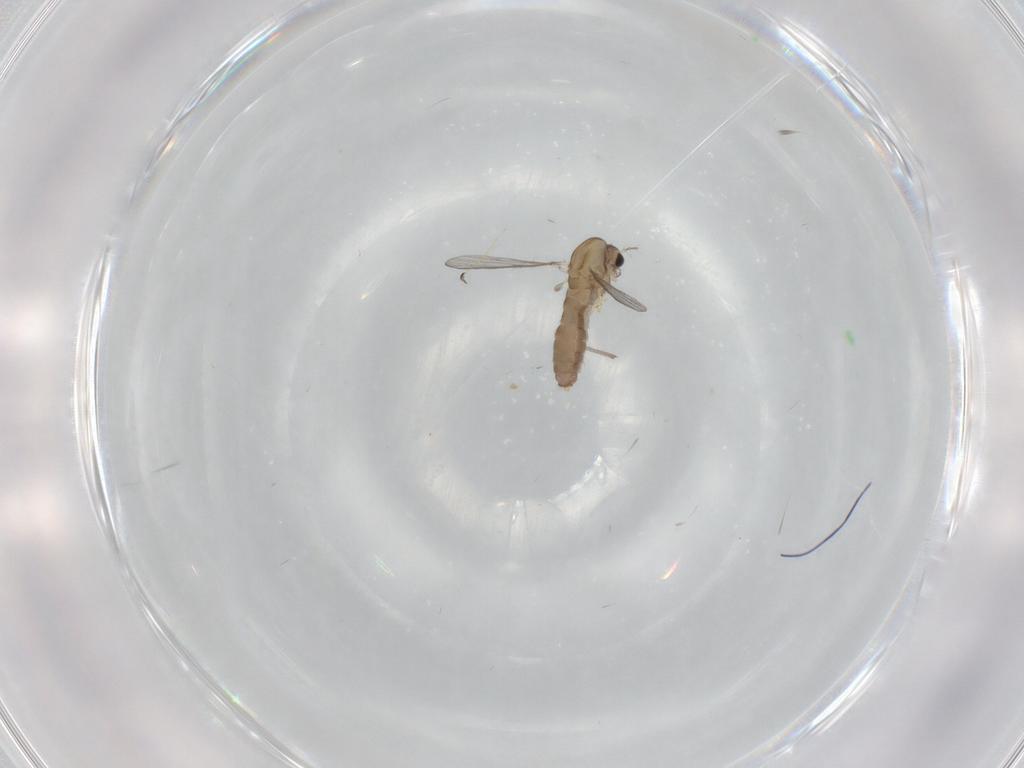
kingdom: Animalia
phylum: Arthropoda
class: Insecta
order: Diptera
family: Chironomidae
